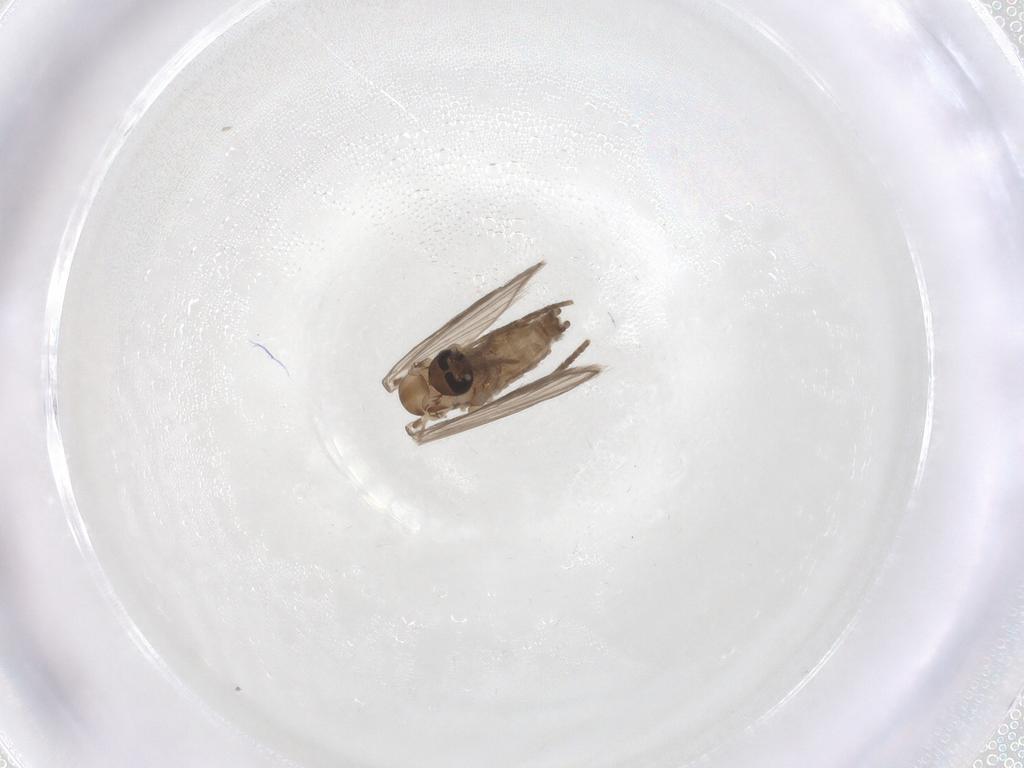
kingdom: Animalia
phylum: Arthropoda
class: Insecta
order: Diptera
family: Psychodidae
